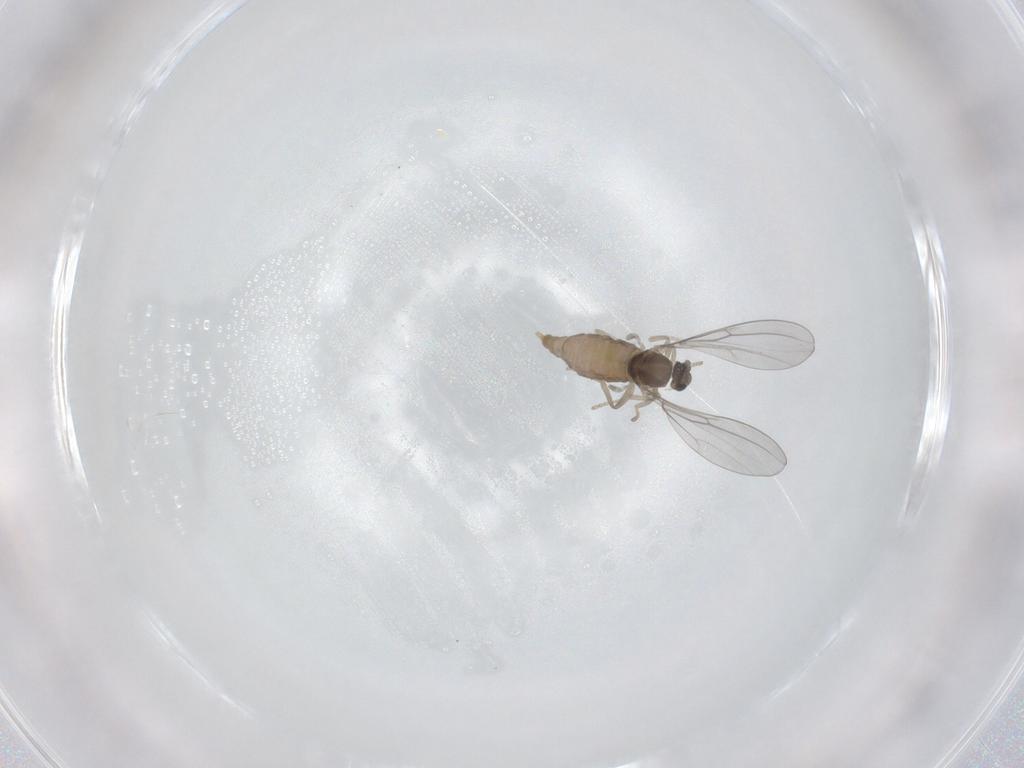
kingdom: Animalia
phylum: Arthropoda
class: Insecta
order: Diptera
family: Cecidomyiidae
